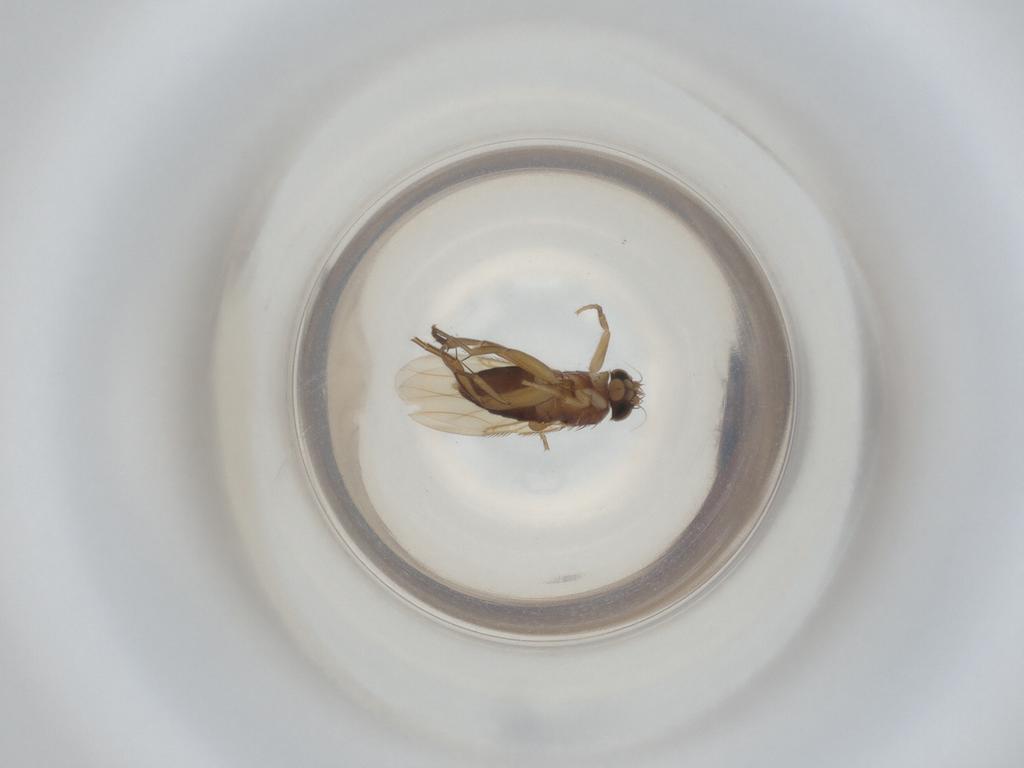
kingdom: Animalia
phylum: Arthropoda
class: Insecta
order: Diptera
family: Phoridae
